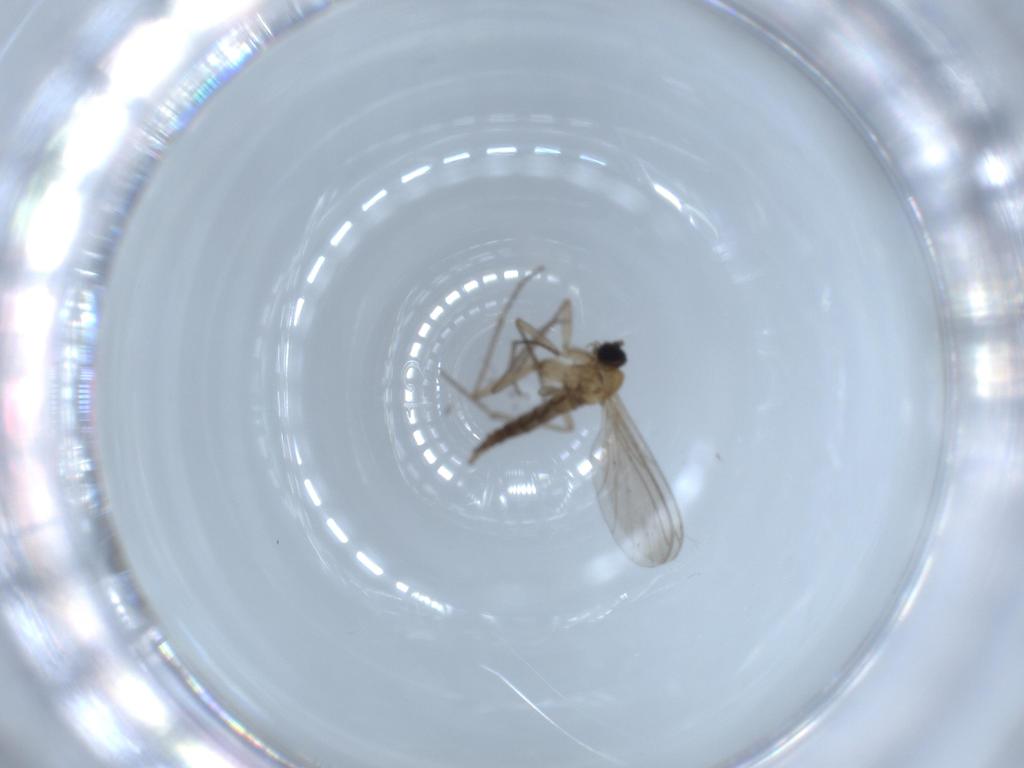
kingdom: Animalia
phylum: Arthropoda
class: Insecta
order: Diptera
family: Sciaridae
